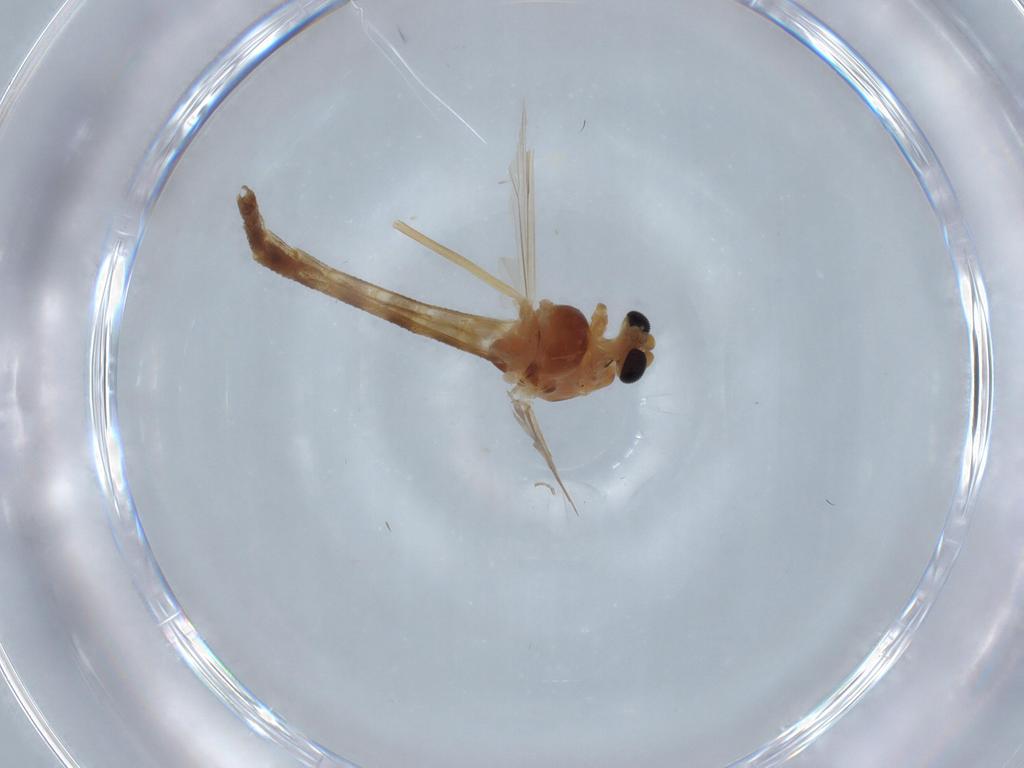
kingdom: Animalia
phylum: Arthropoda
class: Insecta
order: Diptera
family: Chironomidae
